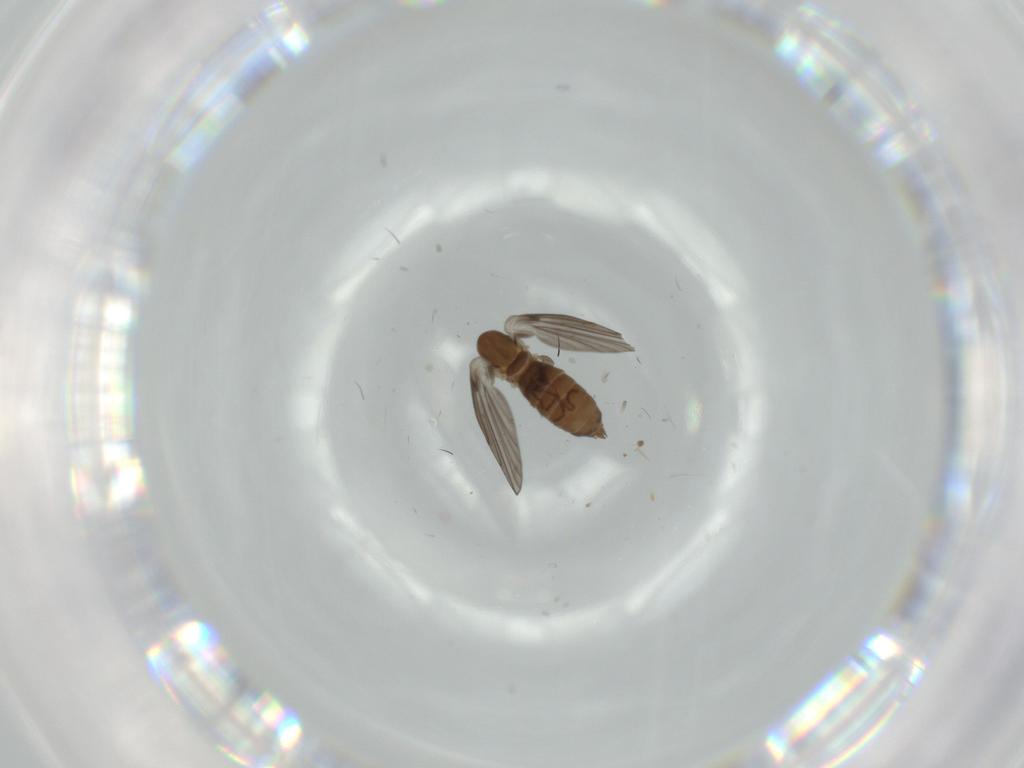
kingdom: Animalia
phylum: Arthropoda
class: Insecta
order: Diptera
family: Psychodidae
